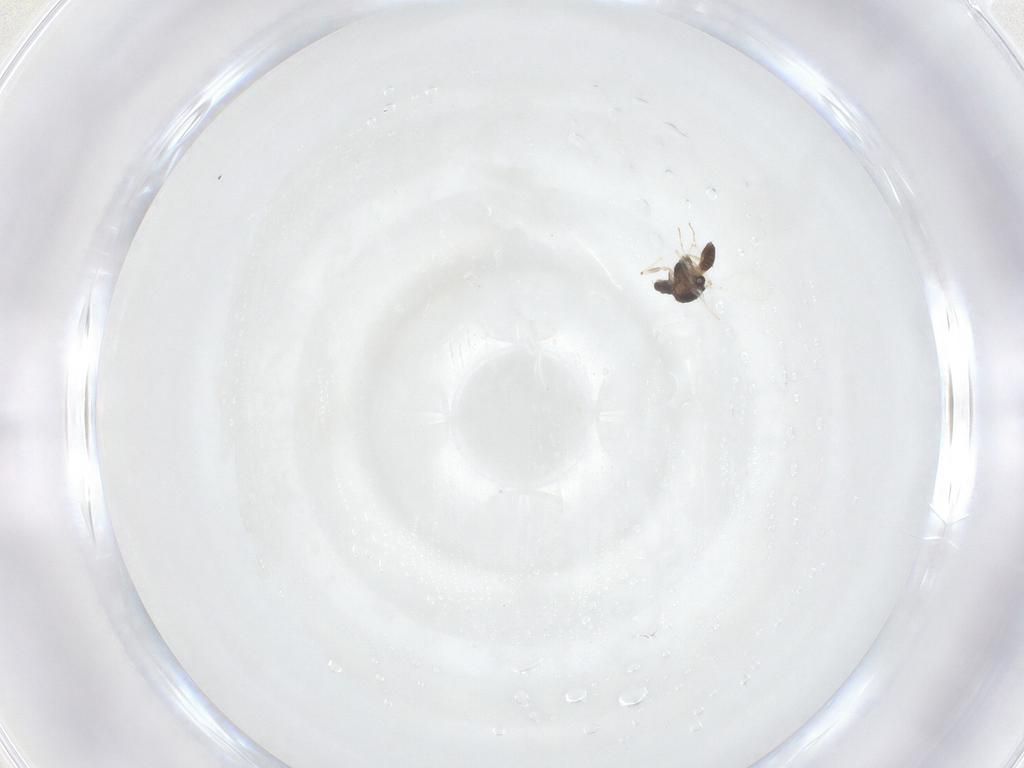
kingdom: Animalia
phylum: Arthropoda
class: Insecta
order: Diptera
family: Chironomidae
